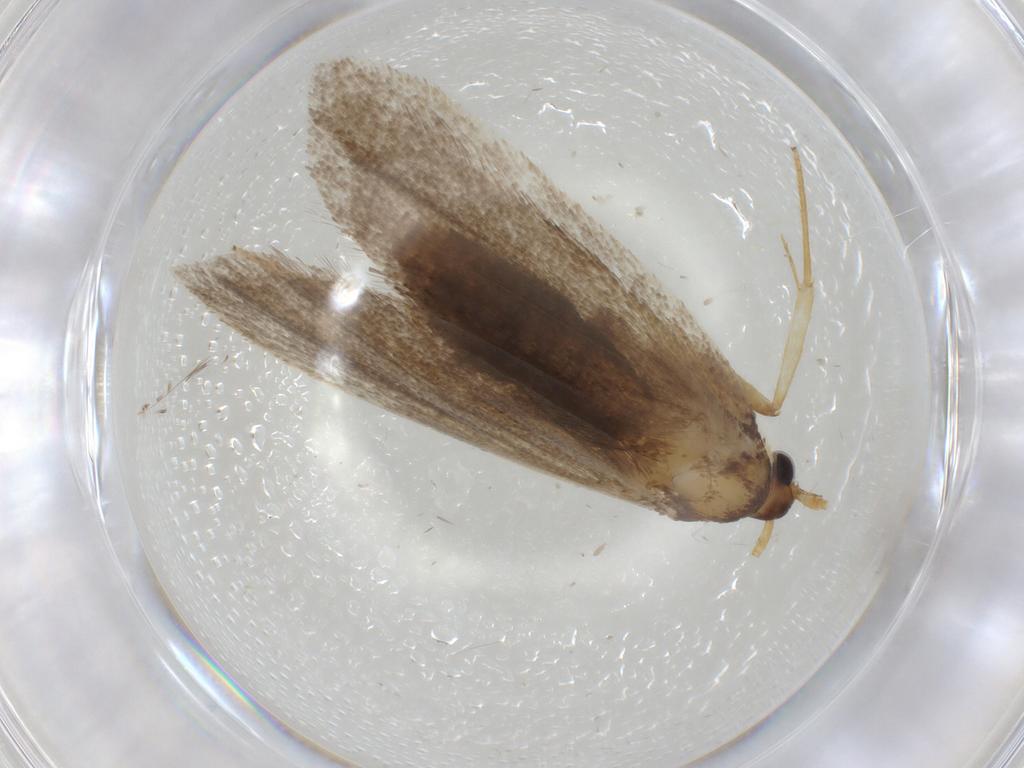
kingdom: Animalia
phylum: Arthropoda
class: Insecta
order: Lepidoptera
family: Lecithoceridae
